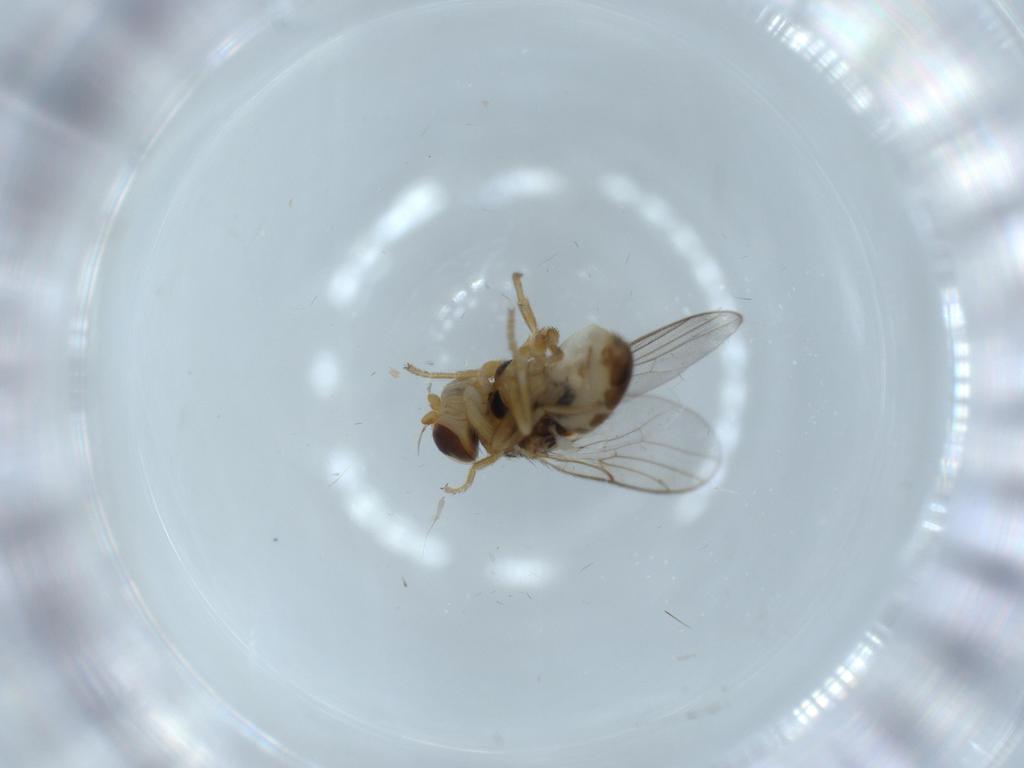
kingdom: Animalia
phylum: Arthropoda
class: Insecta
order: Diptera
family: Chloropidae
